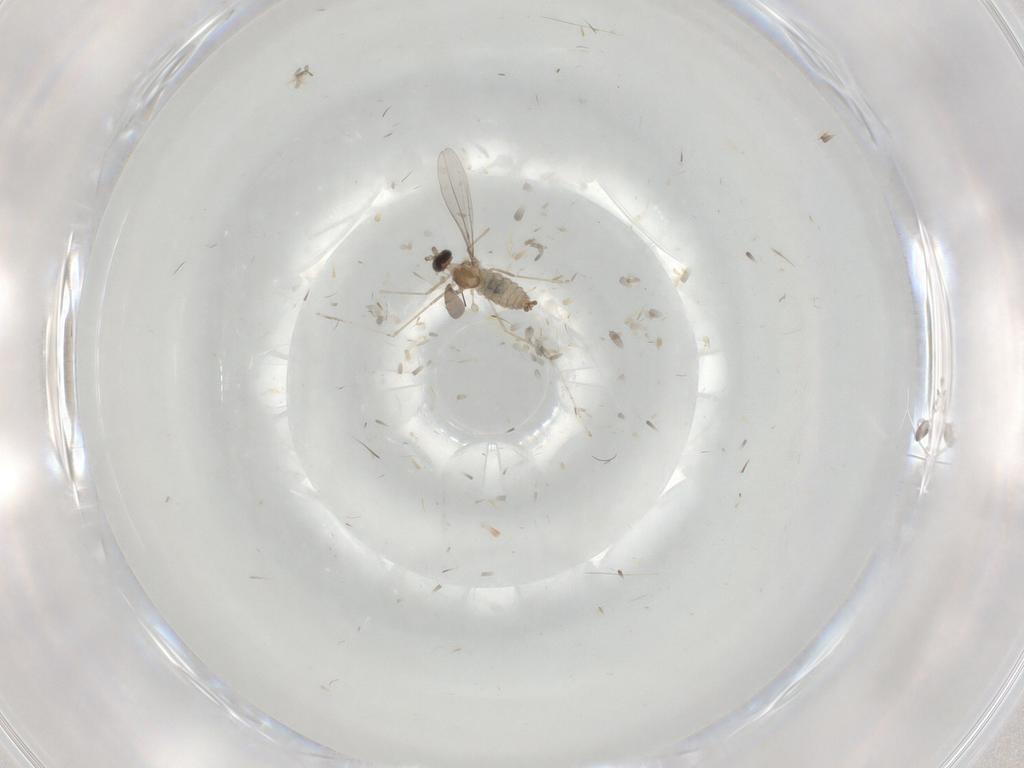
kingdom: Animalia
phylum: Arthropoda
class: Insecta
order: Diptera
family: Cecidomyiidae
